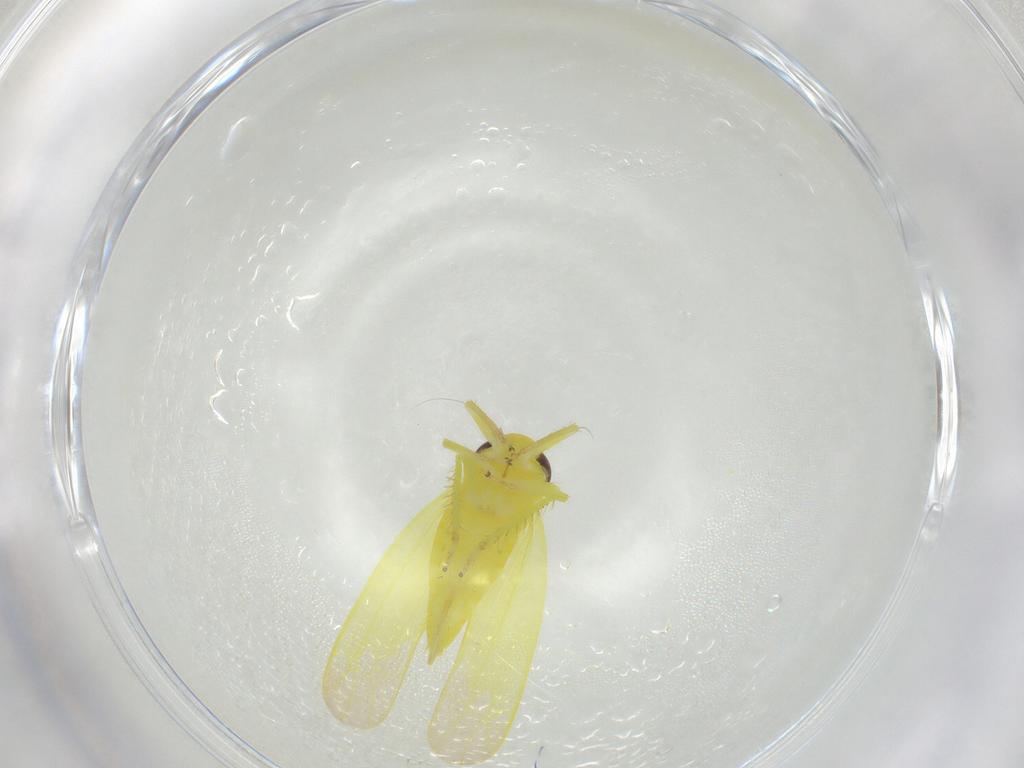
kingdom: Animalia
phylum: Arthropoda
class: Insecta
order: Hemiptera
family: Cicadellidae
